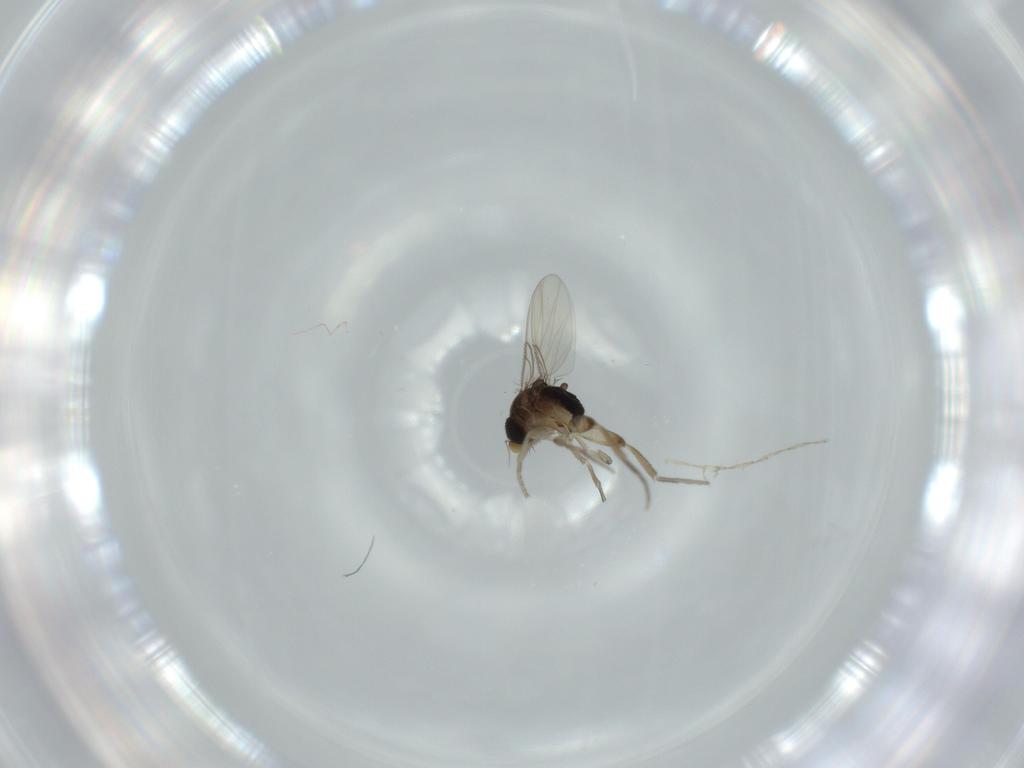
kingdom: Animalia
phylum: Arthropoda
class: Insecta
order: Diptera
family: Phoridae
